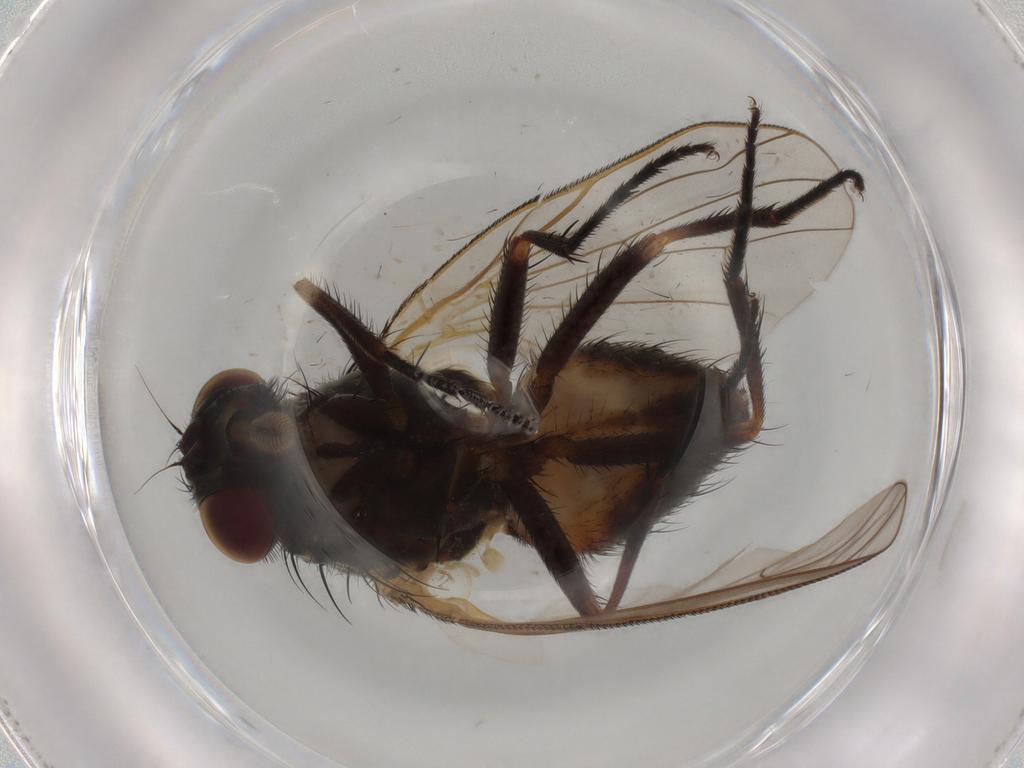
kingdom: Animalia
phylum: Arthropoda
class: Insecta
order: Diptera
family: Fannia
